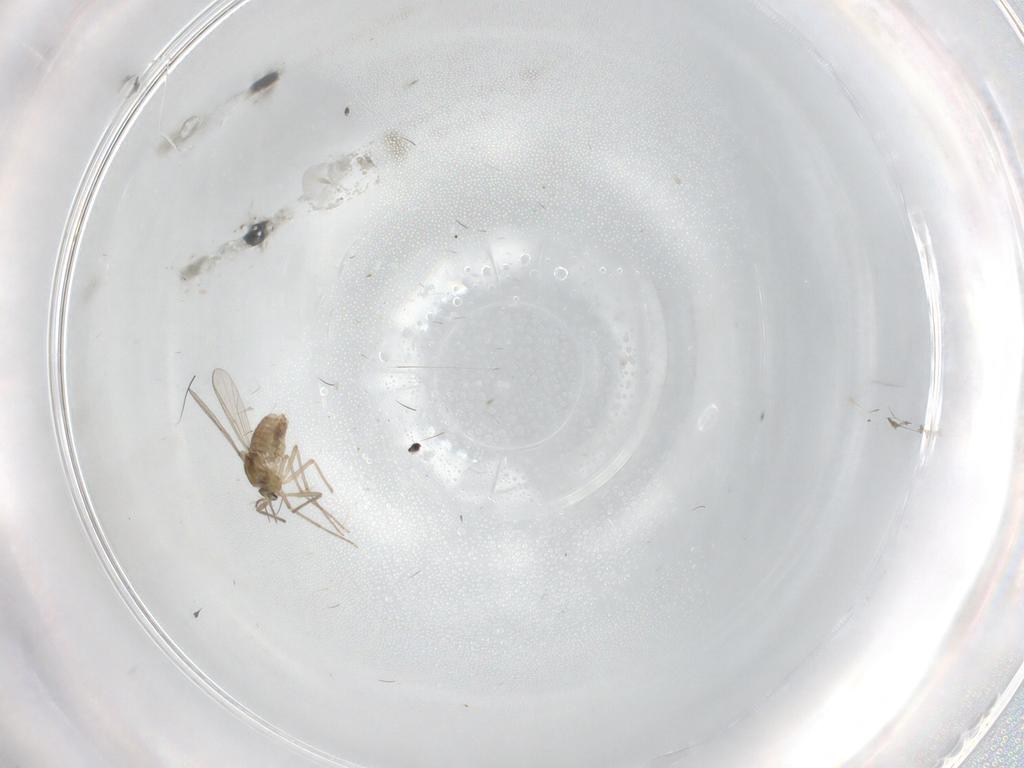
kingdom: Animalia
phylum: Arthropoda
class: Insecta
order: Diptera
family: Chironomidae
